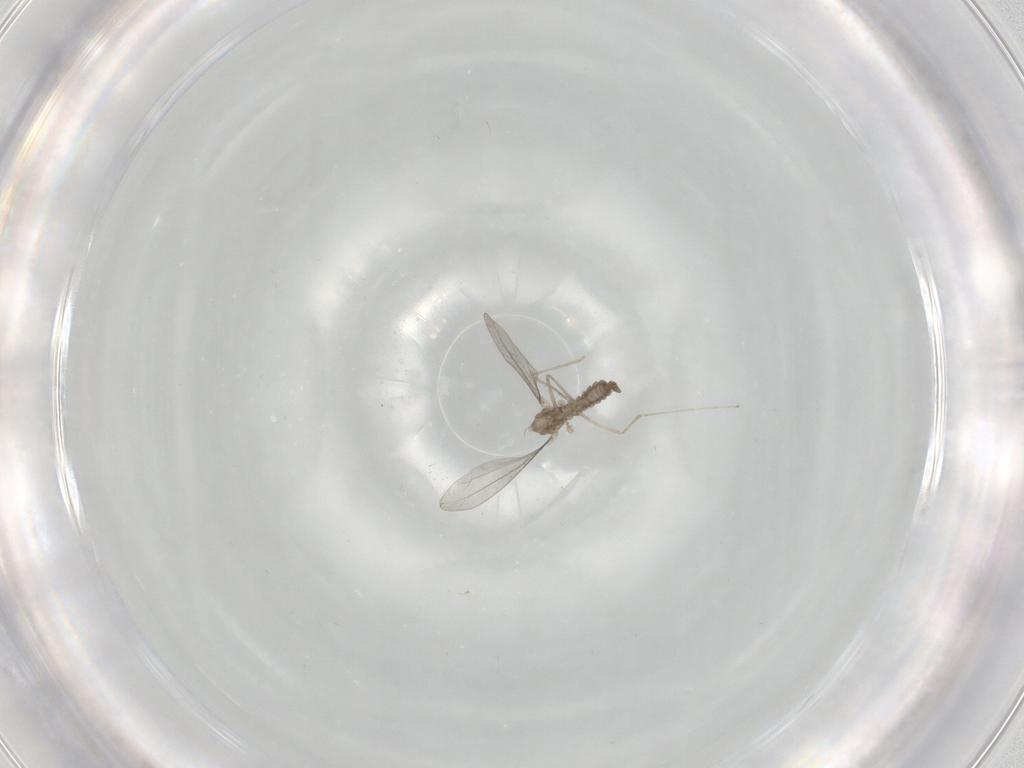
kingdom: Animalia
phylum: Arthropoda
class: Insecta
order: Diptera
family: Cecidomyiidae
